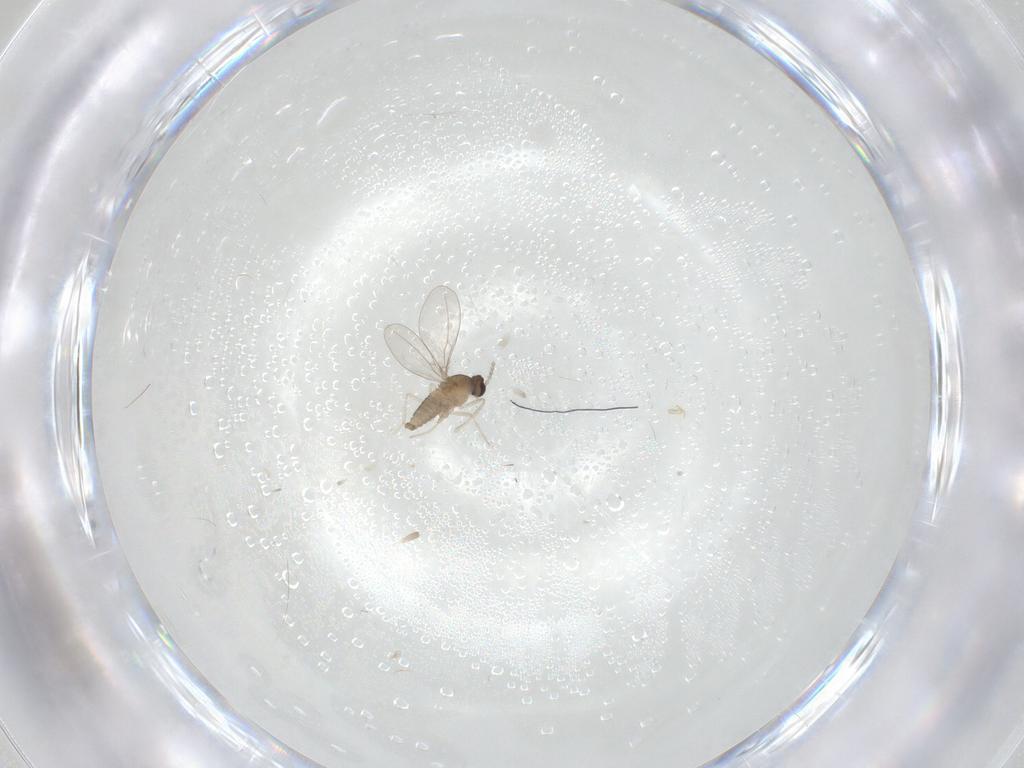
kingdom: Animalia
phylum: Arthropoda
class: Insecta
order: Diptera
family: Cecidomyiidae
